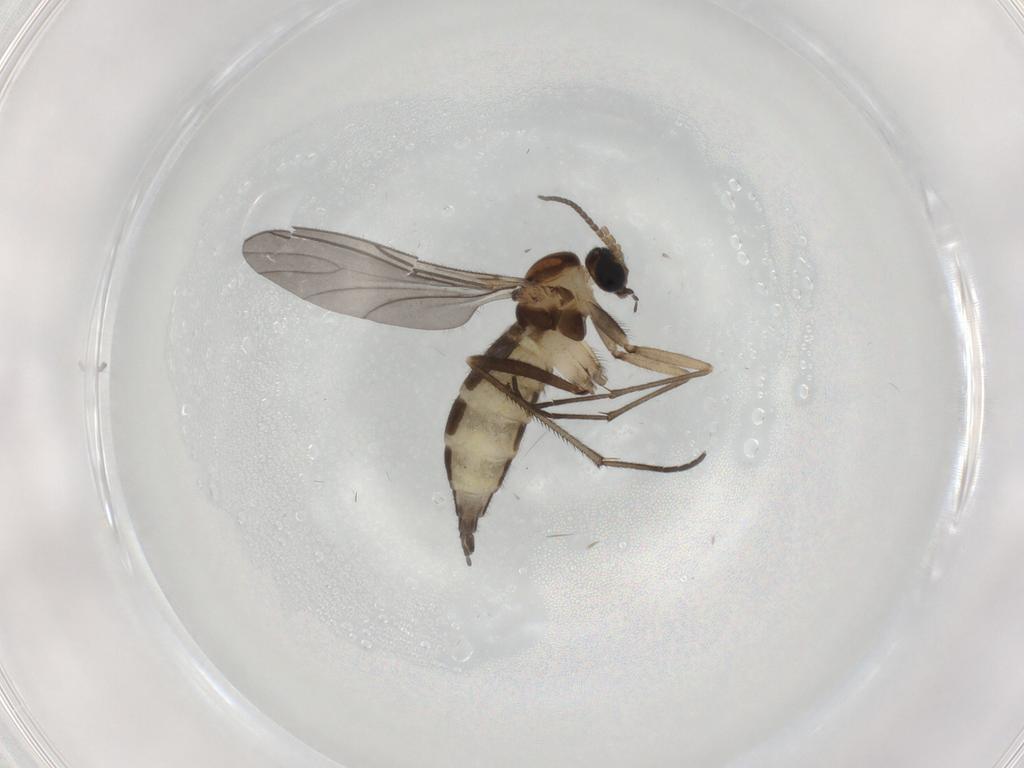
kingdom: Animalia
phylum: Arthropoda
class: Insecta
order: Diptera
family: Sciaridae
